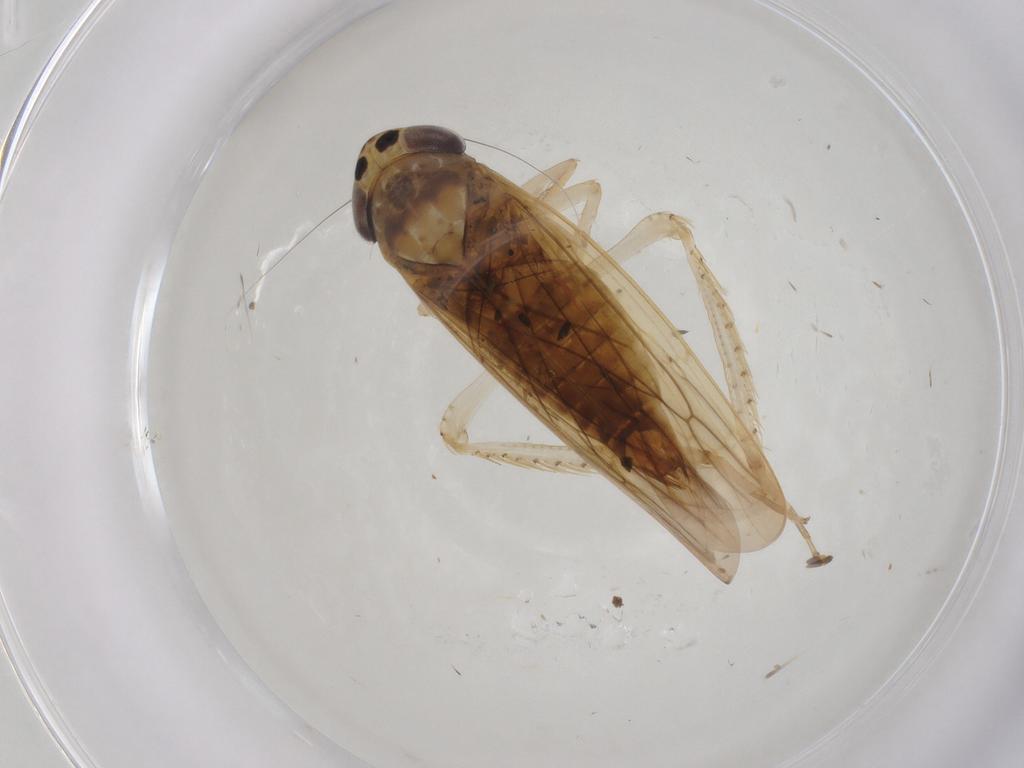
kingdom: Animalia
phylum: Arthropoda
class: Insecta
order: Hemiptera
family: Cicadellidae
